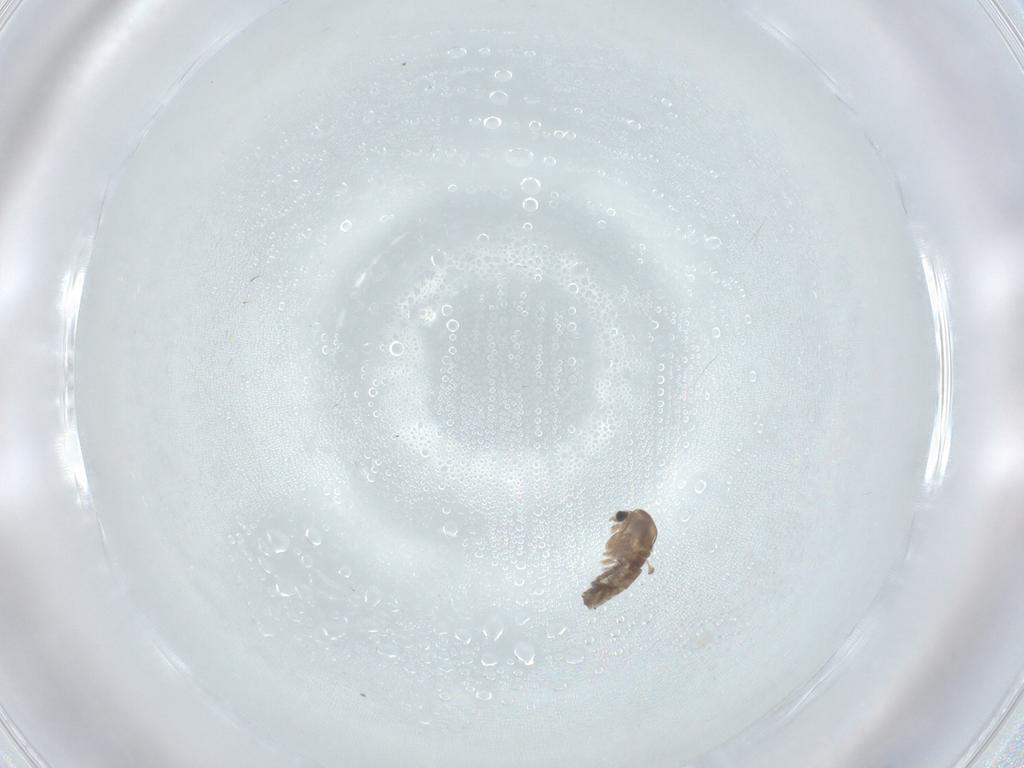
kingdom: Animalia
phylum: Arthropoda
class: Insecta
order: Diptera
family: Chironomidae
